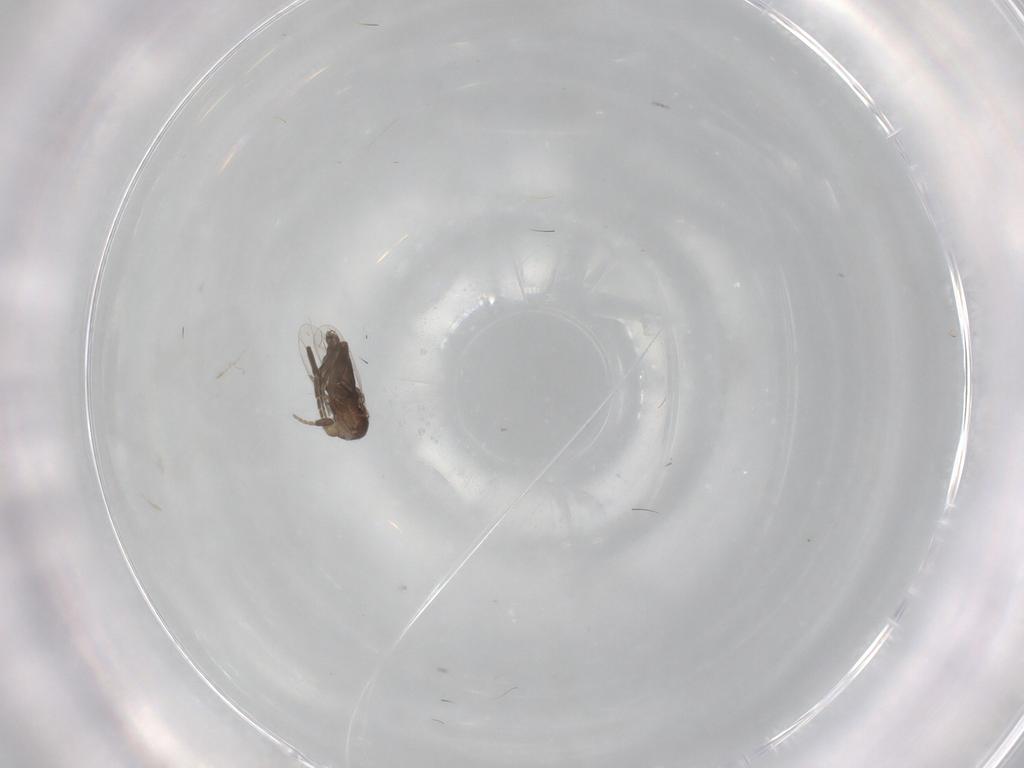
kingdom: Animalia
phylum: Arthropoda
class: Insecta
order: Diptera
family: Phoridae
